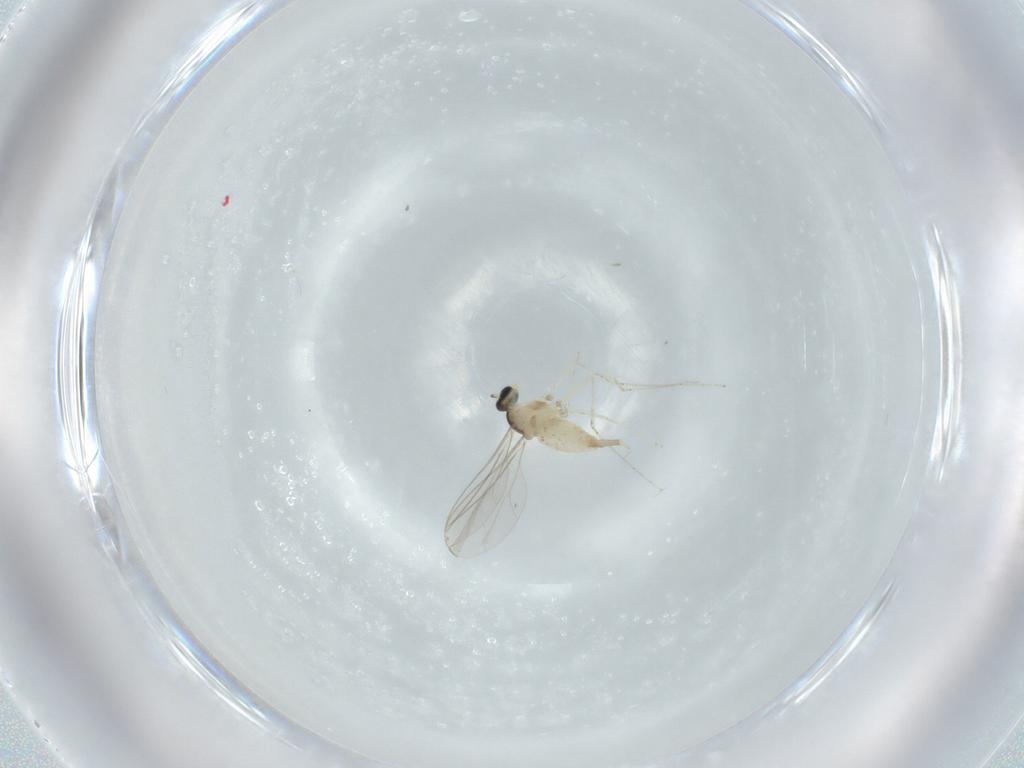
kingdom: Animalia
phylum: Arthropoda
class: Insecta
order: Diptera
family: Cecidomyiidae
